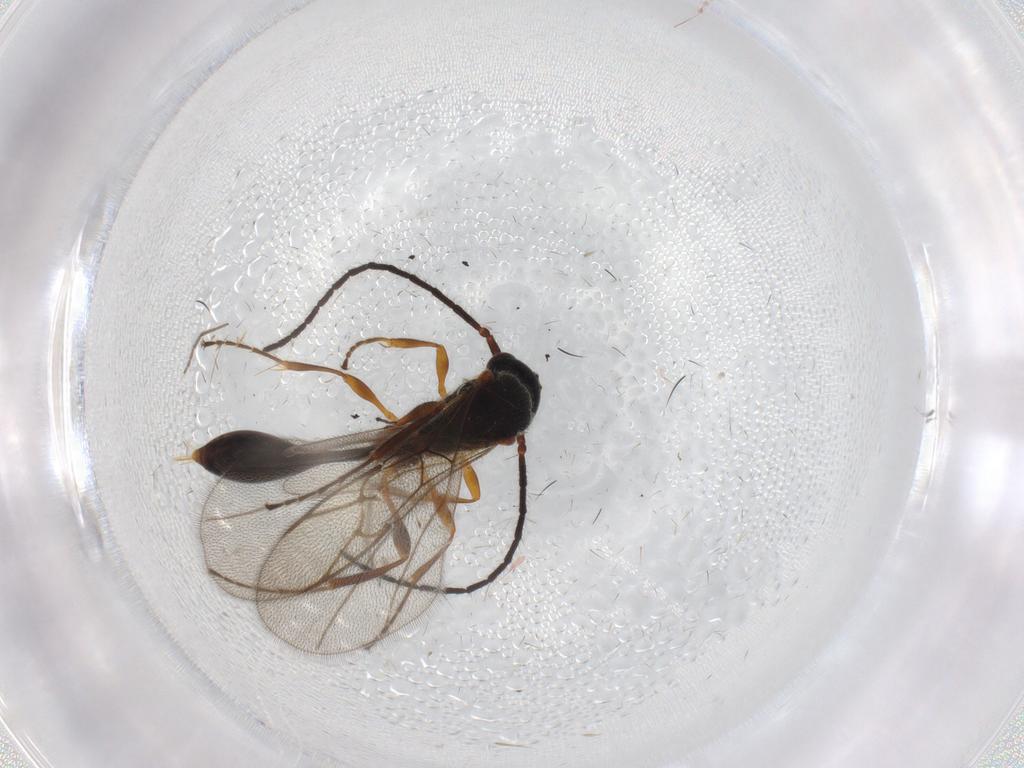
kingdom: Animalia
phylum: Arthropoda
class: Insecta
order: Hymenoptera
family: Diapriidae
